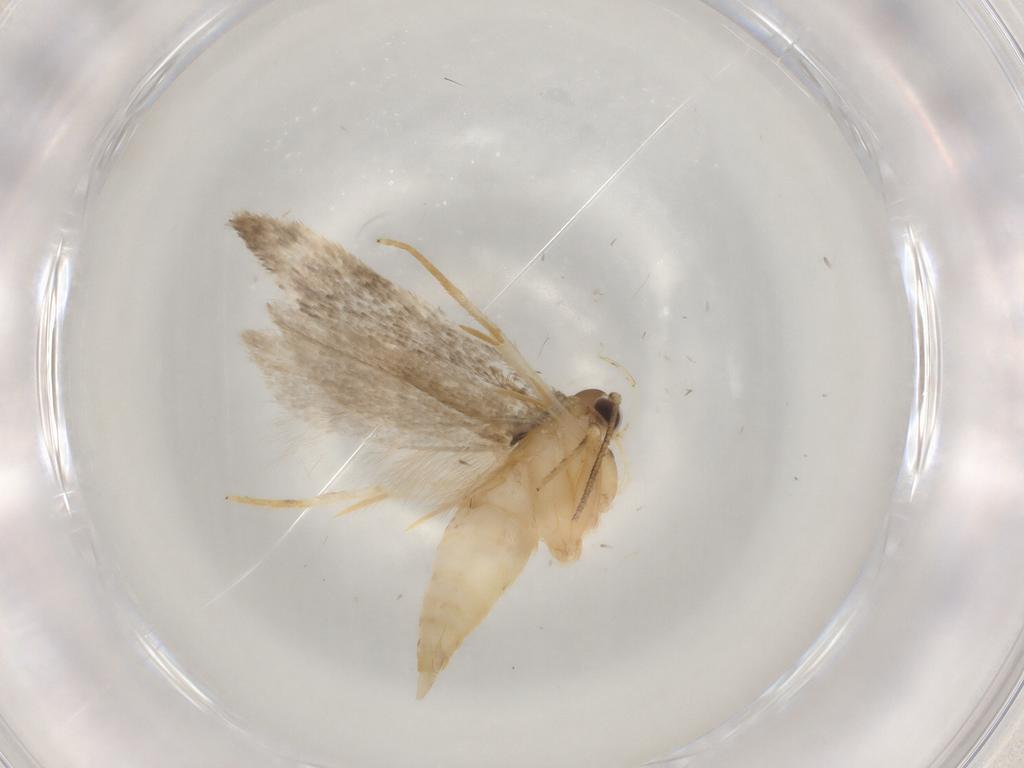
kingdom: Animalia
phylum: Arthropoda
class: Insecta
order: Lepidoptera
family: Autostichidae
